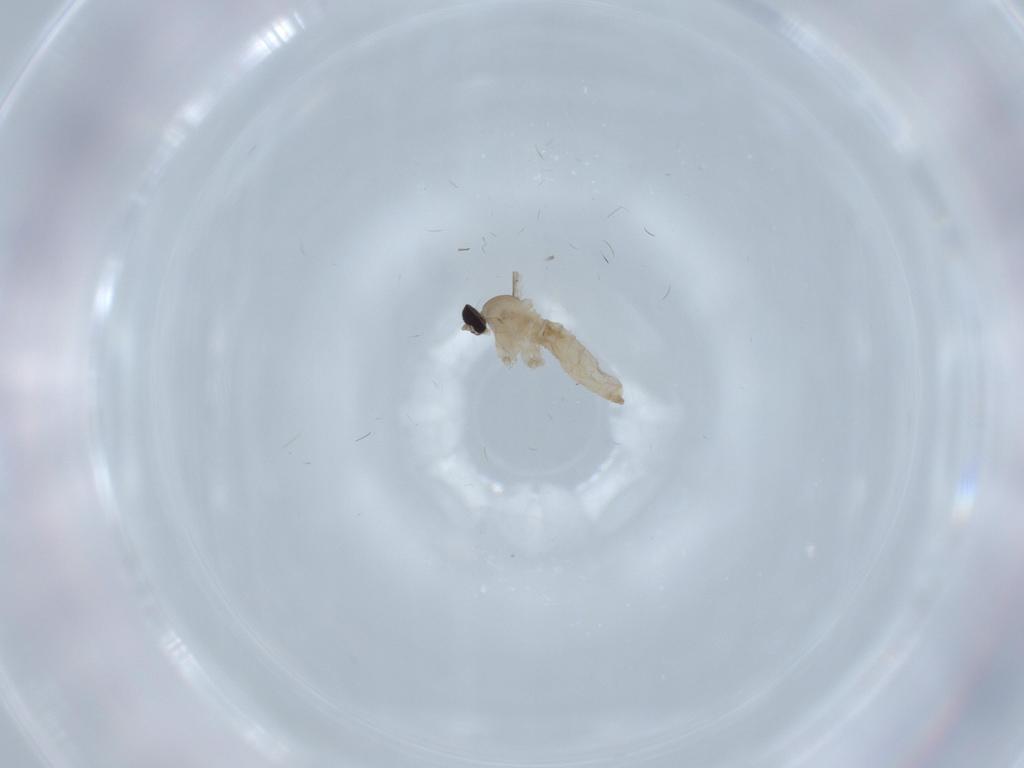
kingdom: Animalia
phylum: Arthropoda
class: Insecta
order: Diptera
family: Cecidomyiidae
